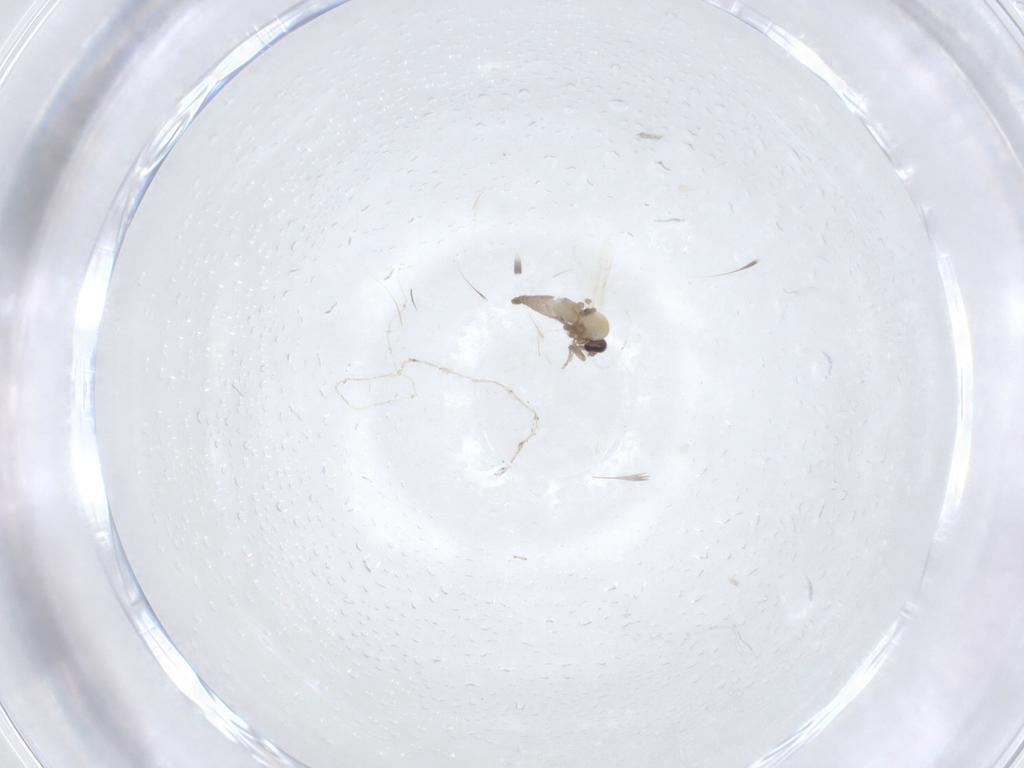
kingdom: Animalia
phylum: Arthropoda
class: Insecta
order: Diptera
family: Ceratopogonidae
